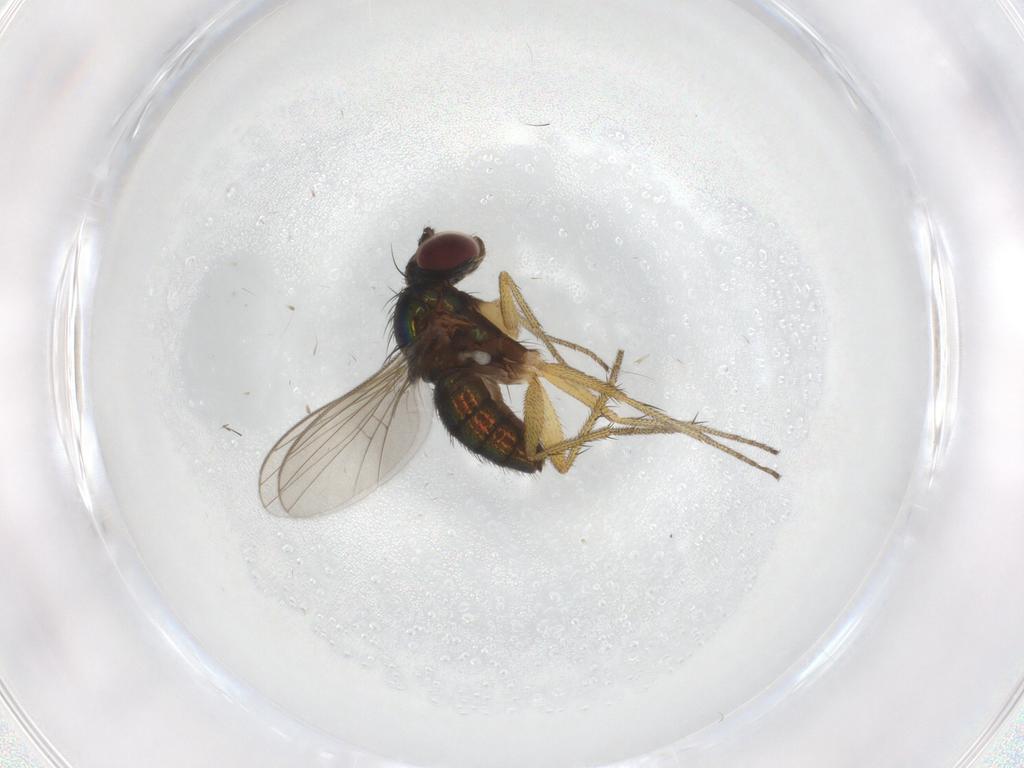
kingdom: Animalia
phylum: Arthropoda
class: Insecta
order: Diptera
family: Dolichopodidae
